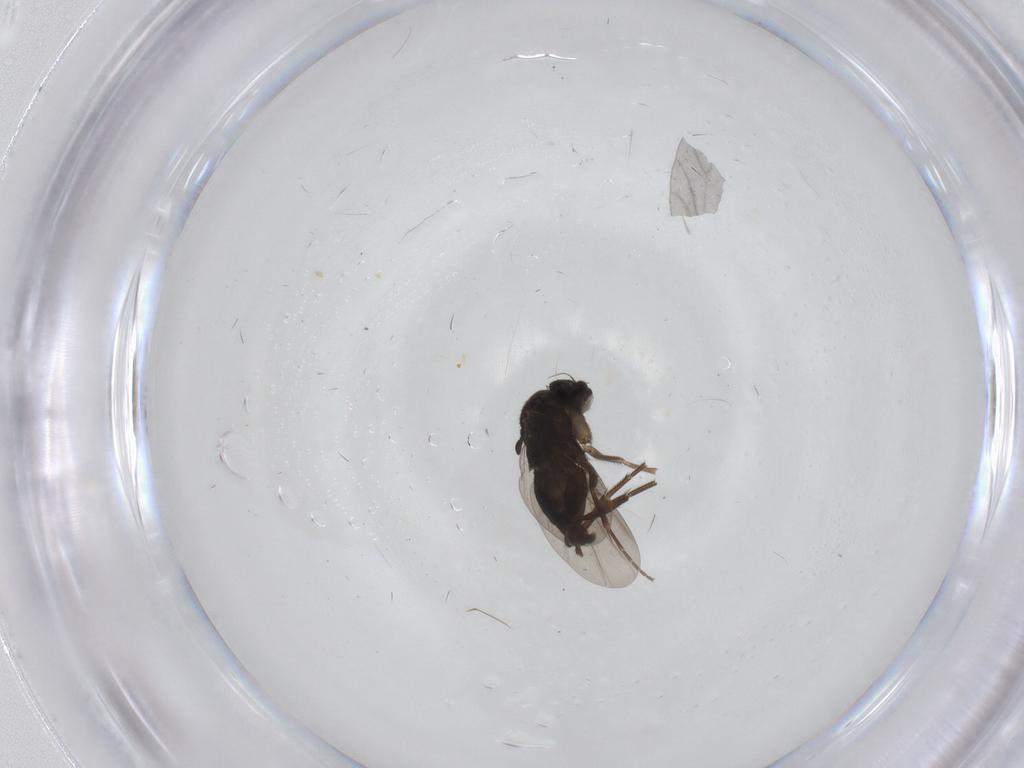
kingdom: Animalia
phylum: Arthropoda
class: Insecta
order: Diptera
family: Phoridae
